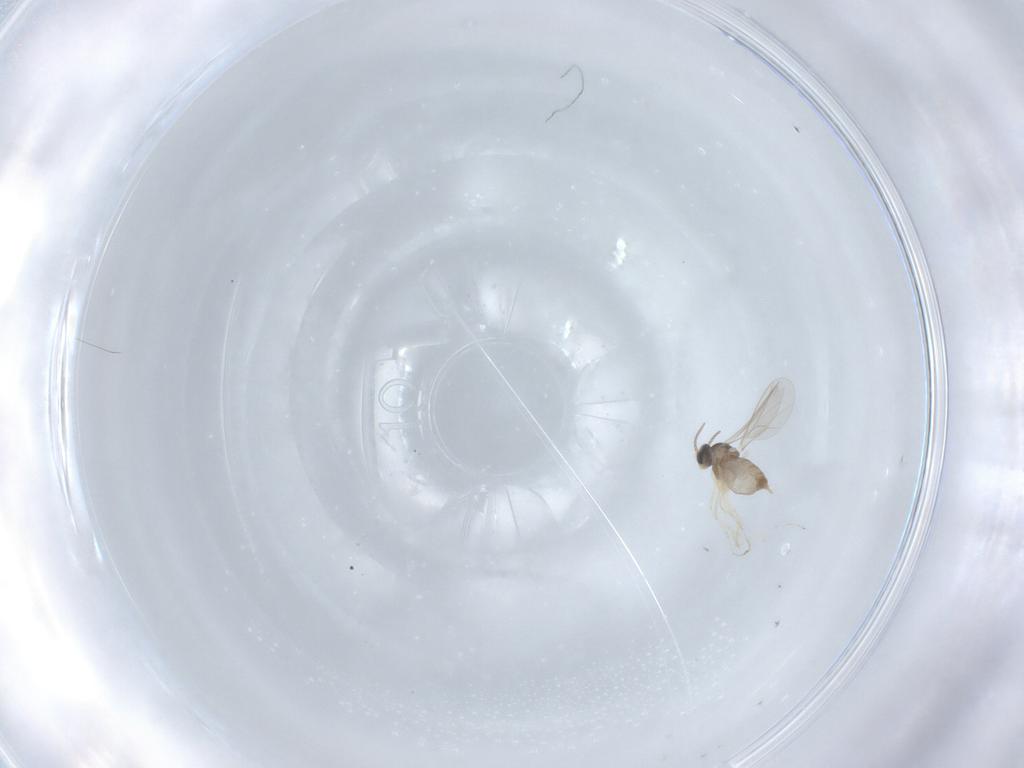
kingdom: Animalia
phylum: Arthropoda
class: Insecta
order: Diptera
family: Cecidomyiidae
